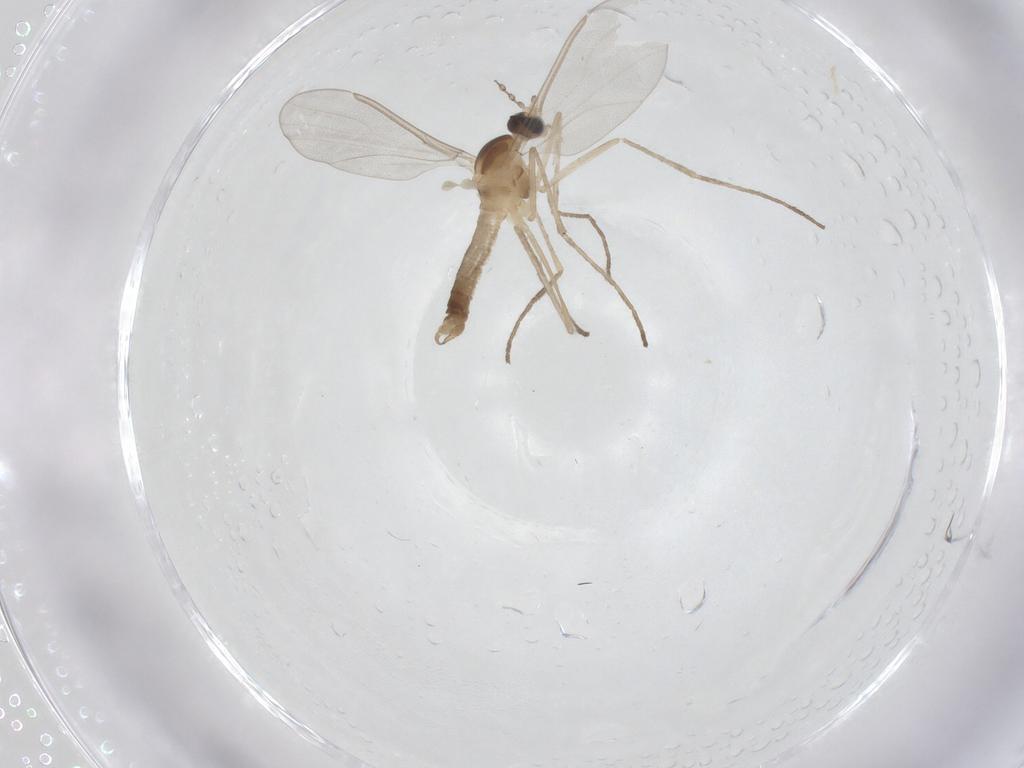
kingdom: Animalia
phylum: Arthropoda
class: Insecta
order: Diptera
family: Cecidomyiidae
